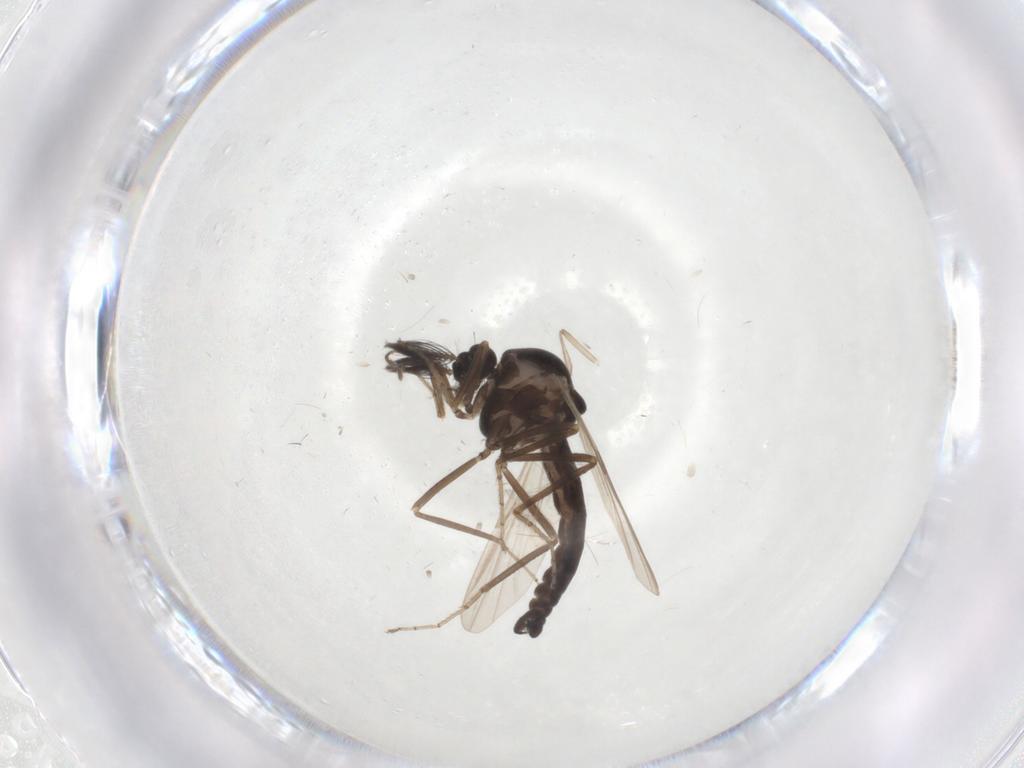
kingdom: Animalia
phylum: Arthropoda
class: Insecta
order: Diptera
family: Ceratopogonidae
